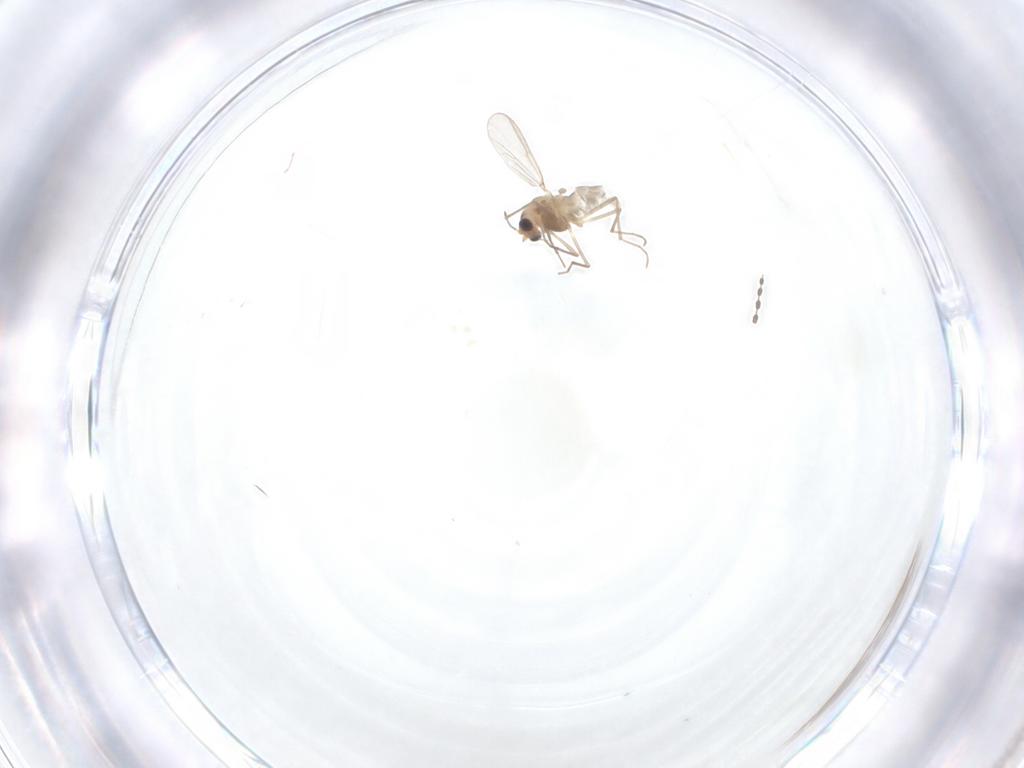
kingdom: Animalia
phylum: Arthropoda
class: Insecta
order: Diptera
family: Chironomidae
